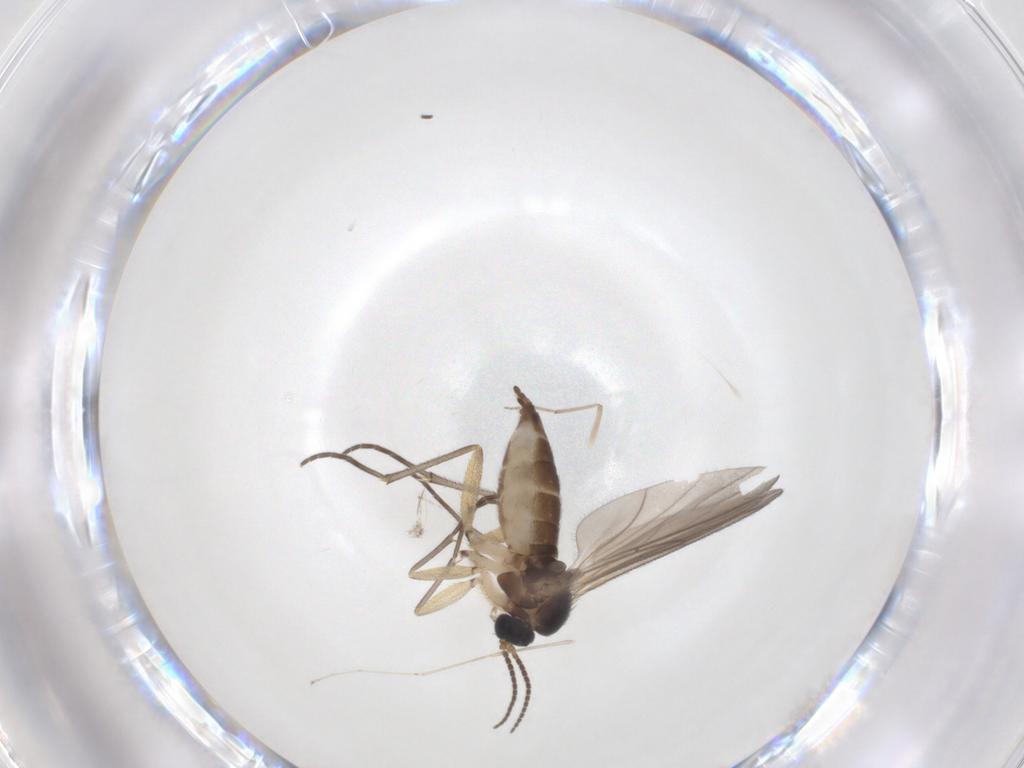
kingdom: Animalia
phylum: Arthropoda
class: Insecta
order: Diptera
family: Sciaridae
